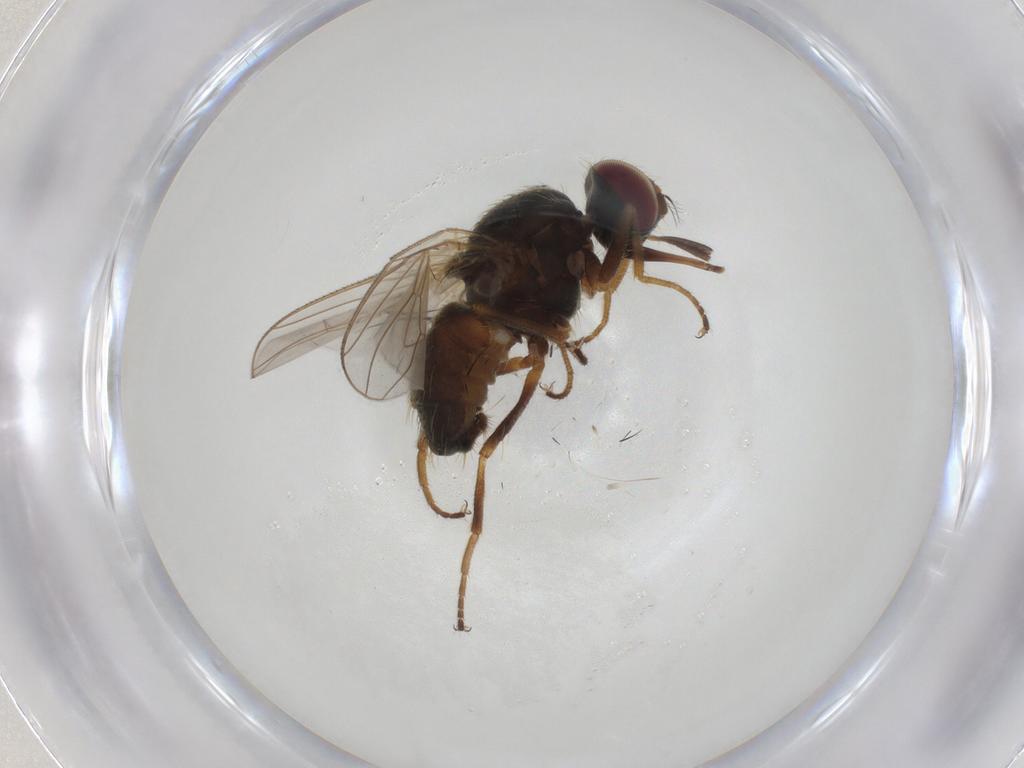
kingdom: Animalia
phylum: Arthropoda
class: Insecta
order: Diptera
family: Muscidae
